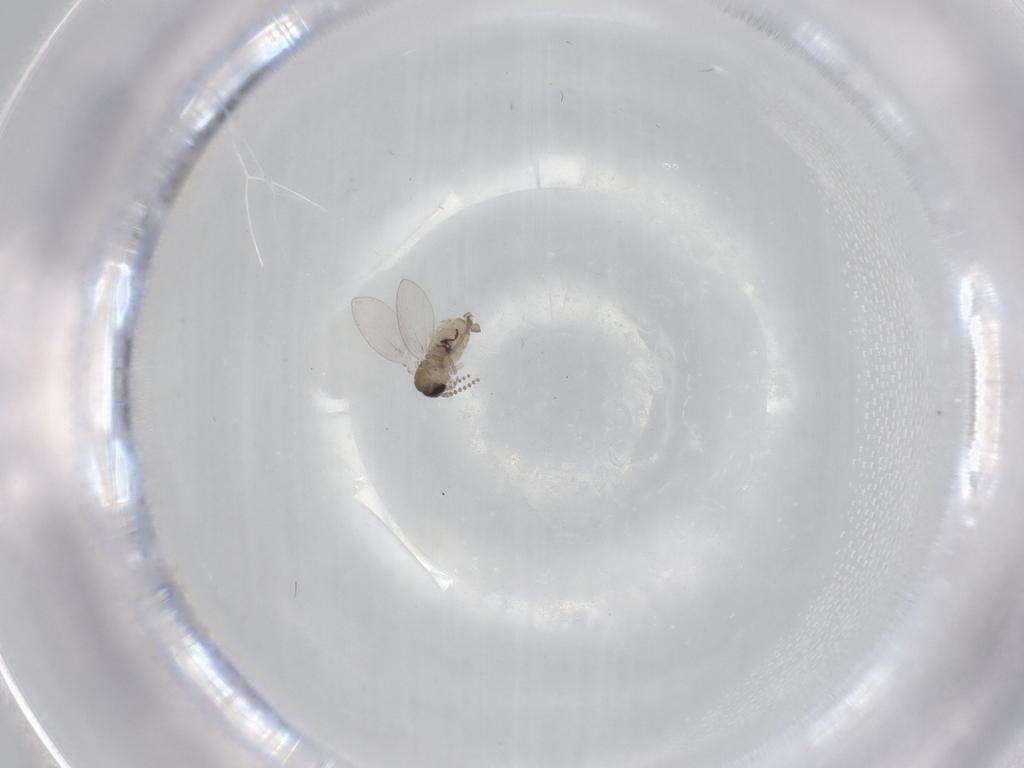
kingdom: Animalia
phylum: Arthropoda
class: Insecta
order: Diptera
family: Psychodidae
